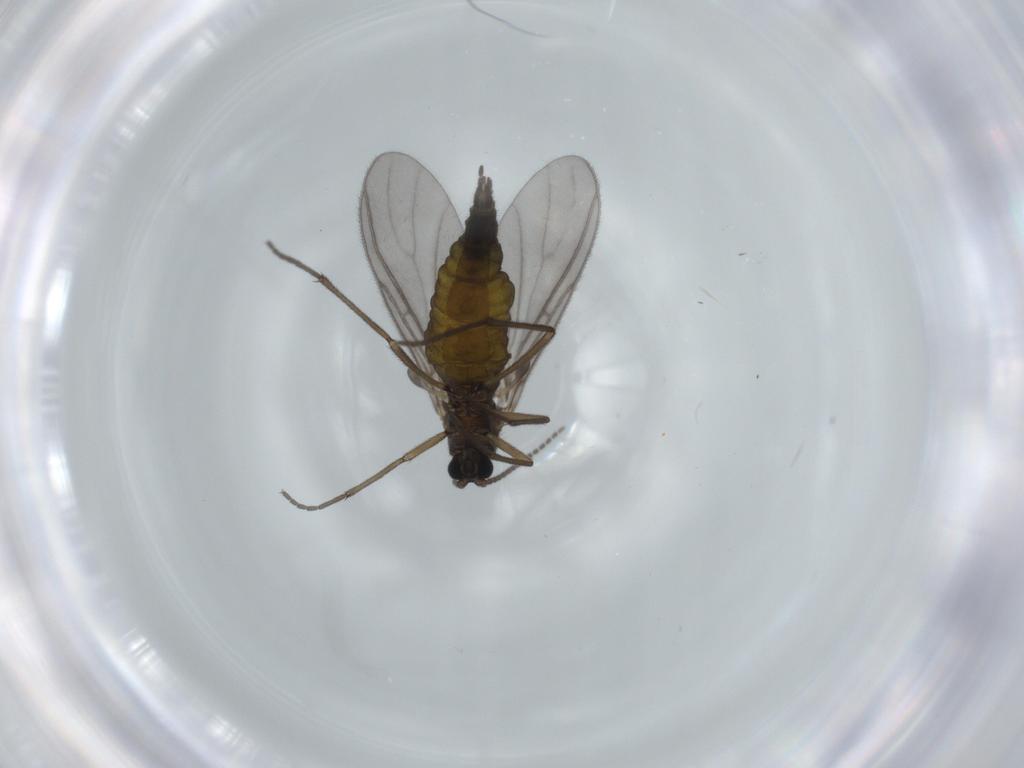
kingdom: Animalia
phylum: Arthropoda
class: Insecta
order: Diptera
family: Sciaridae
